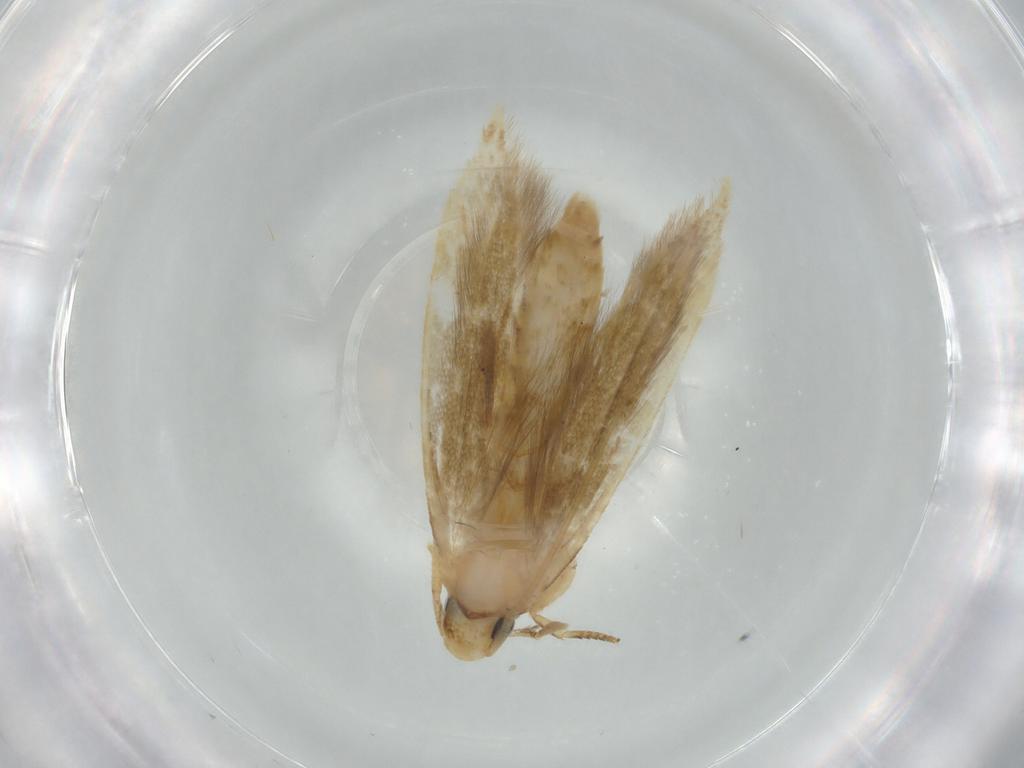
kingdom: Animalia
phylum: Arthropoda
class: Insecta
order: Lepidoptera
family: Tineidae
